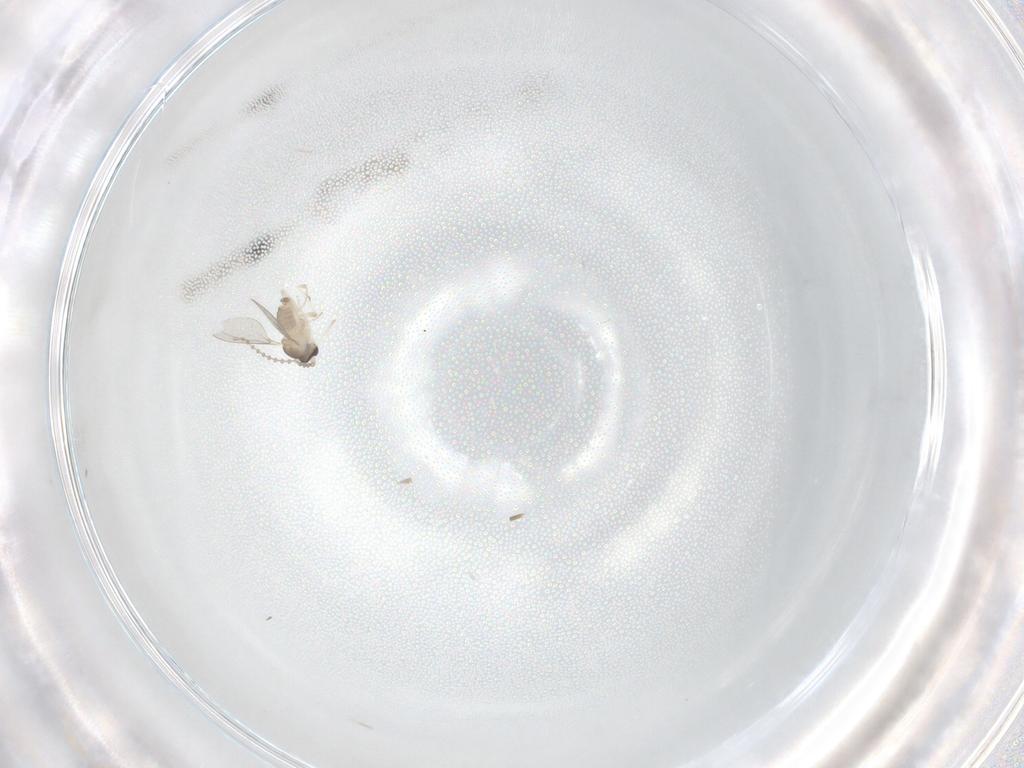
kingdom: Animalia
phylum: Arthropoda
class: Insecta
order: Diptera
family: Cecidomyiidae
